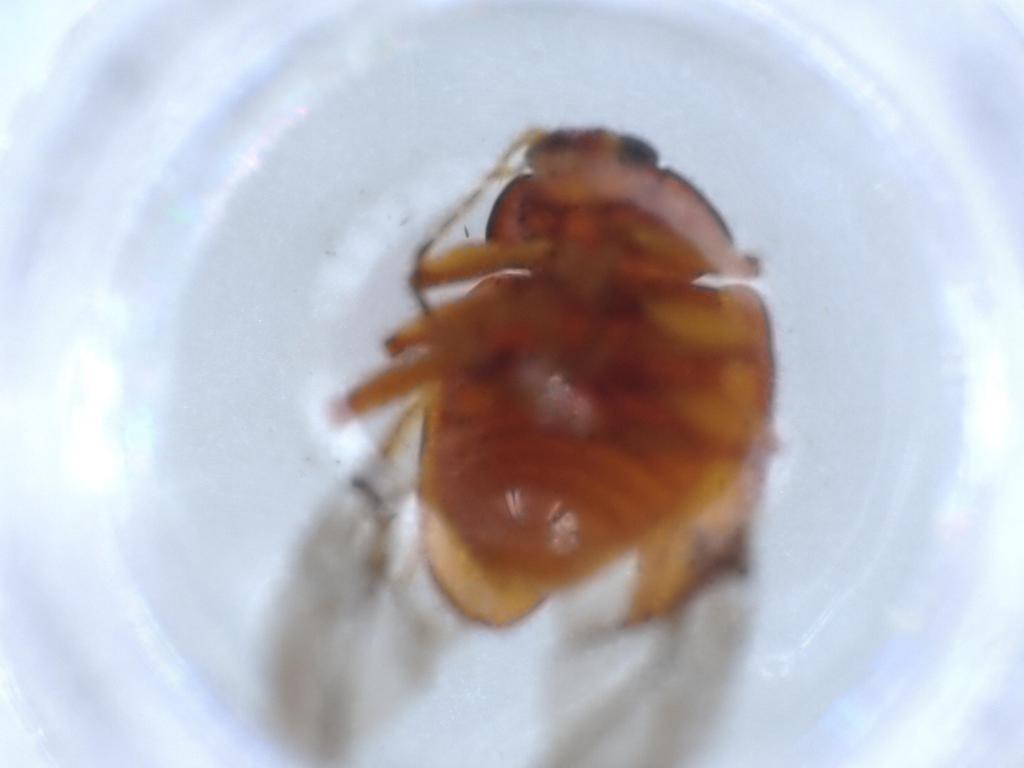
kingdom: Animalia
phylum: Arthropoda
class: Insecta
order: Coleoptera
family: Chrysomelidae
